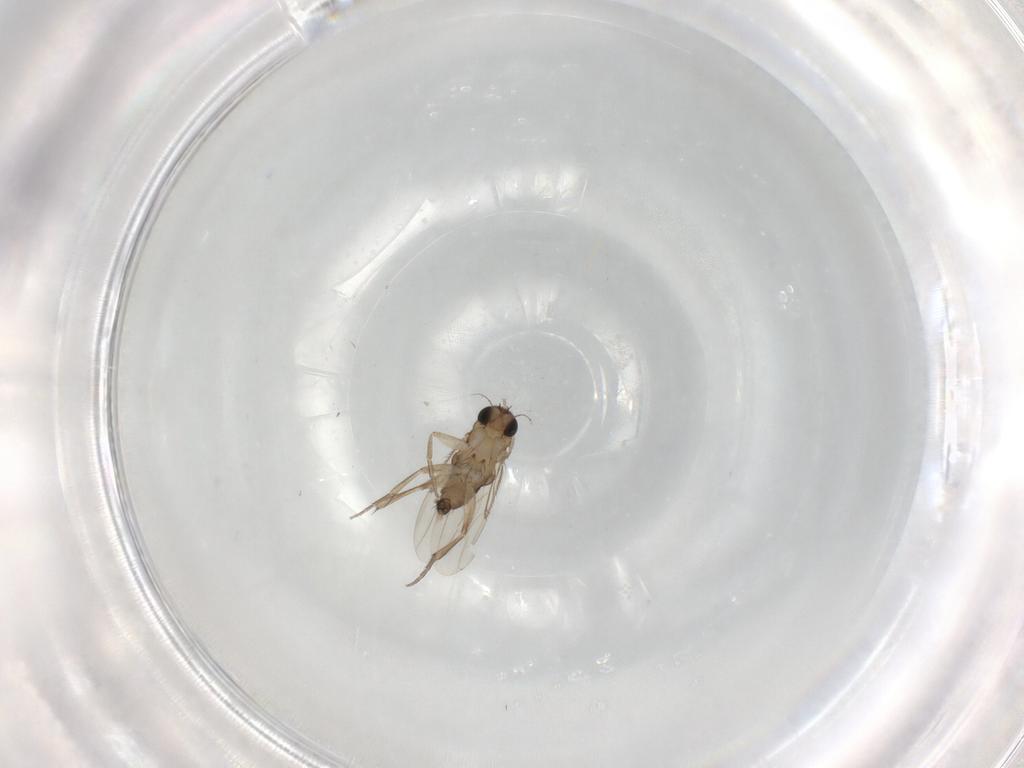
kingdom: Animalia
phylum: Arthropoda
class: Insecta
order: Diptera
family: Phoridae
